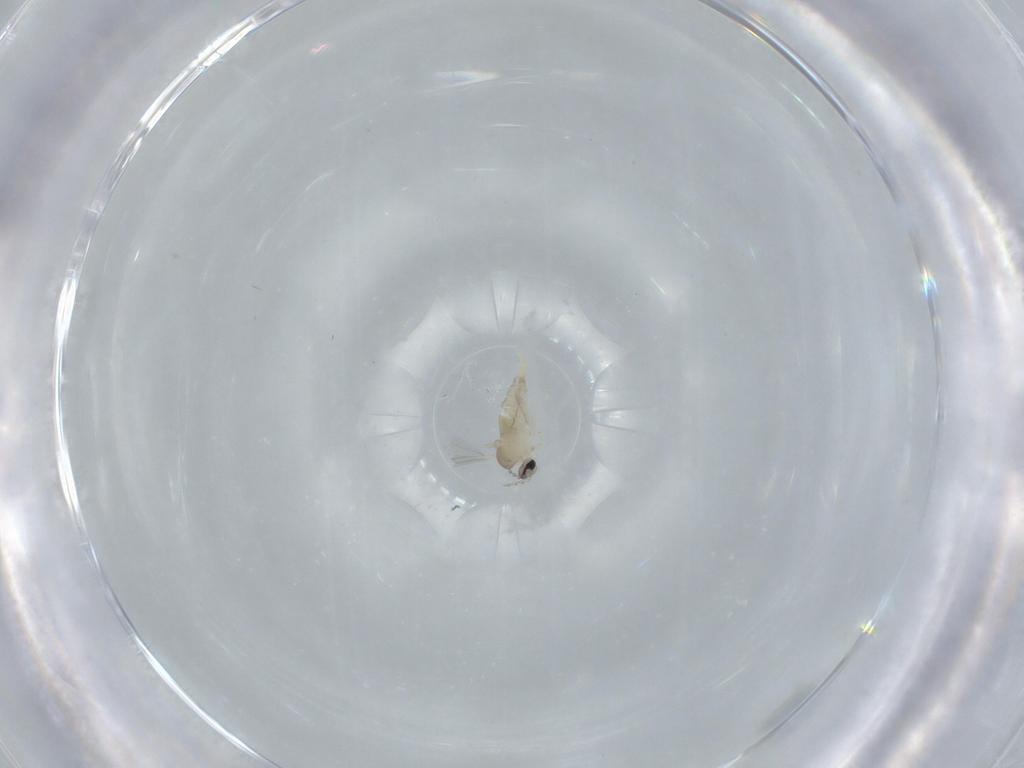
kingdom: Animalia
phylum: Arthropoda
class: Insecta
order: Diptera
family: Cecidomyiidae
